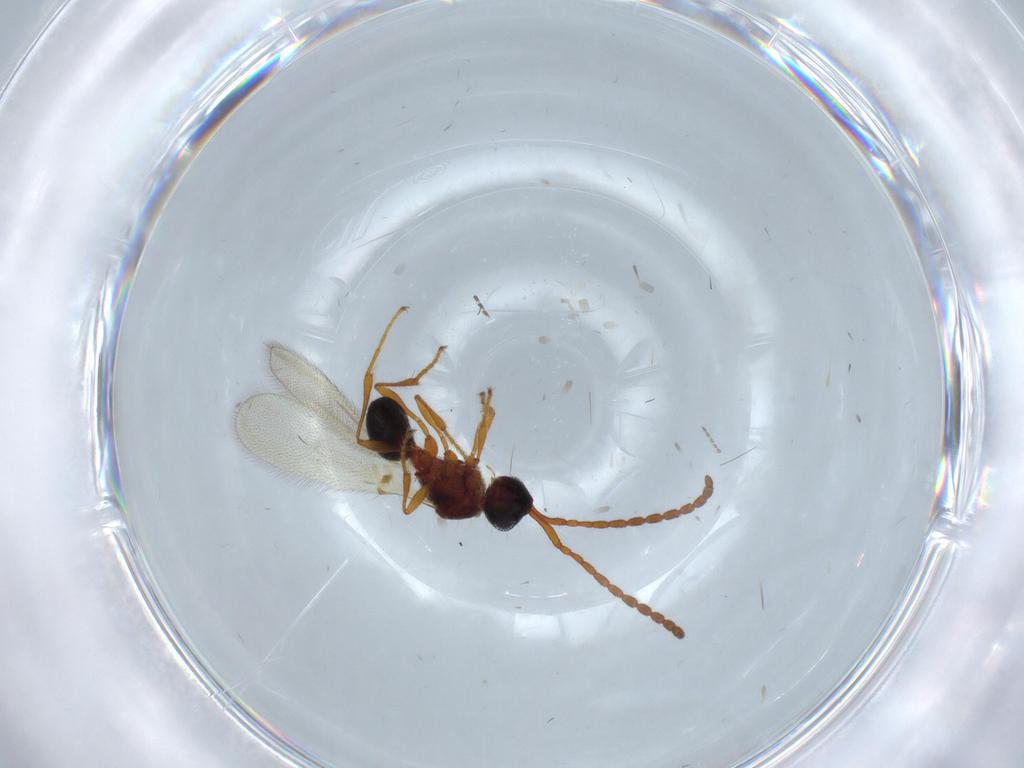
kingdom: Animalia
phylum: Arthropoda
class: Insecta
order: Hymenoptera
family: Diapriidae
